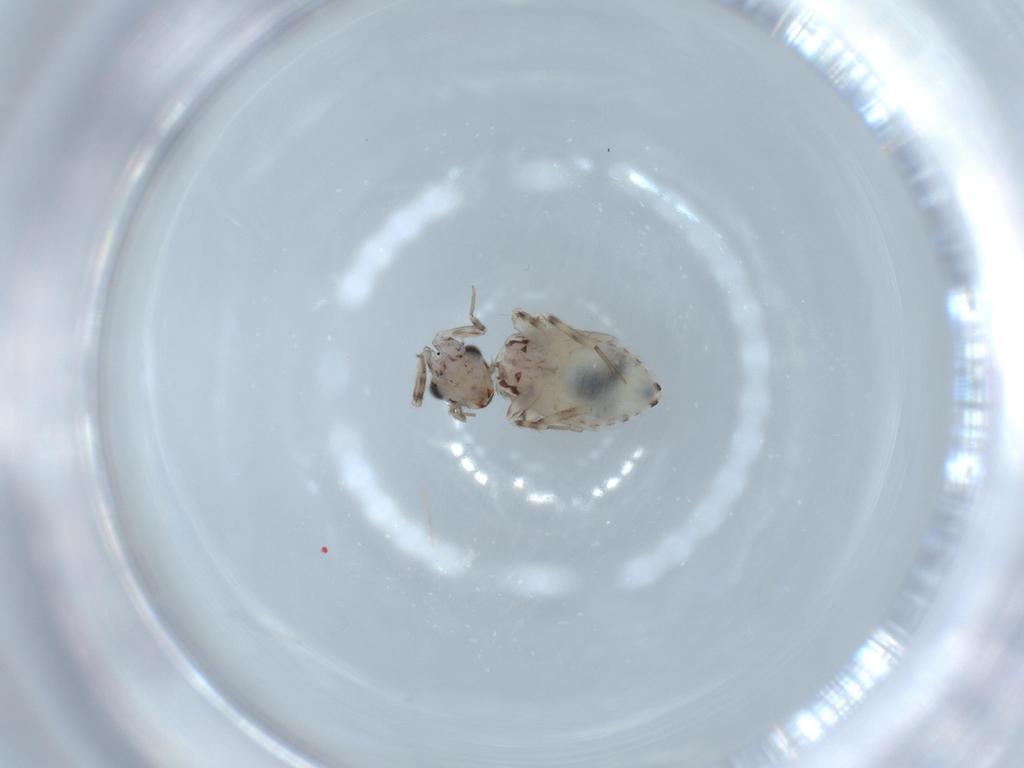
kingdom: Animalia
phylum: Arthropoda
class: Insecta
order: Psocodea
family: Lepidopsocidae
